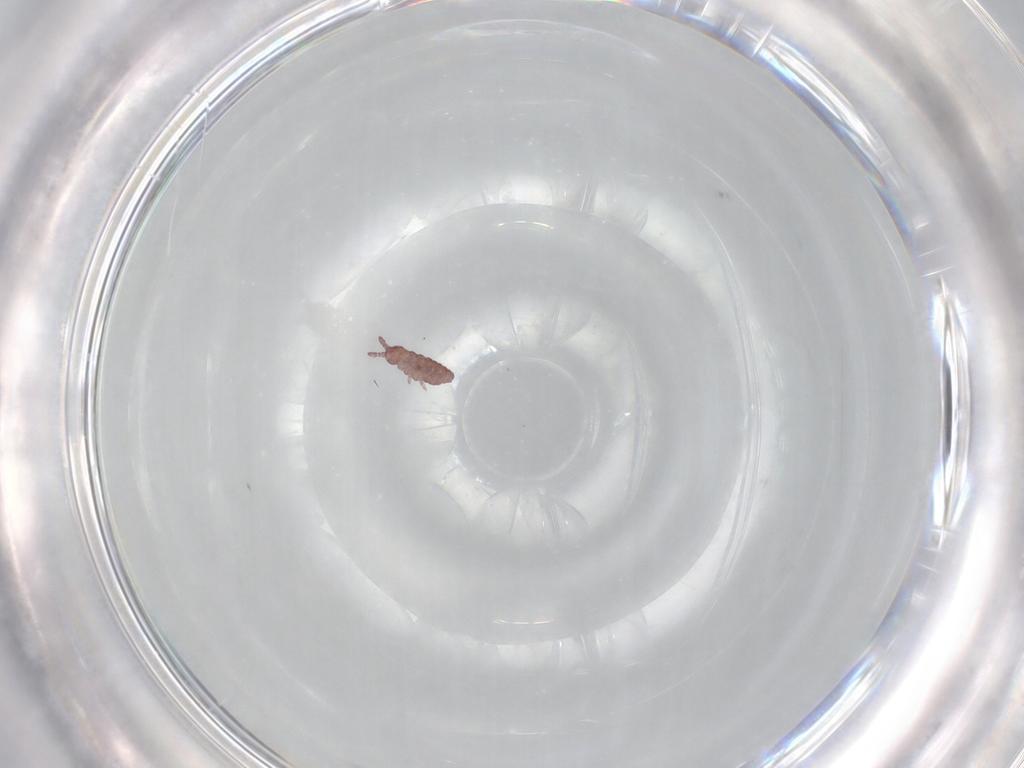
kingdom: Animalia
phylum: Arthropoda
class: Collembola
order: Poduromorpha
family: Hypogastruridae
